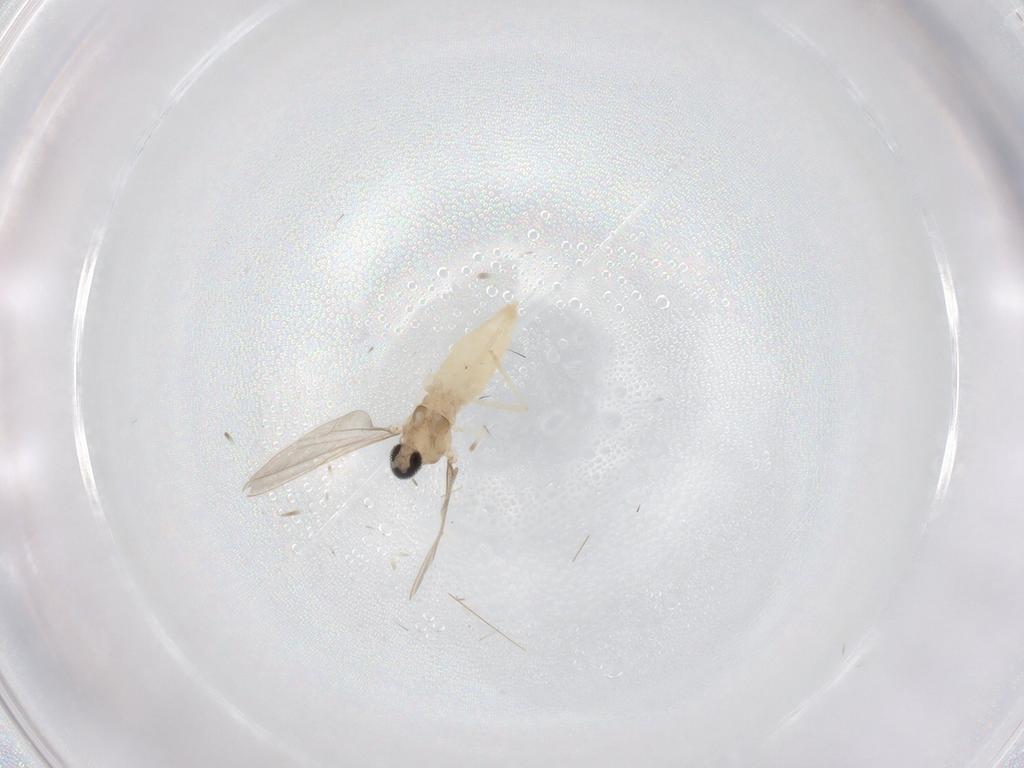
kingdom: Animalia
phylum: Arthropoda
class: Insecta
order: Diptera
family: Cecidomyiidae
